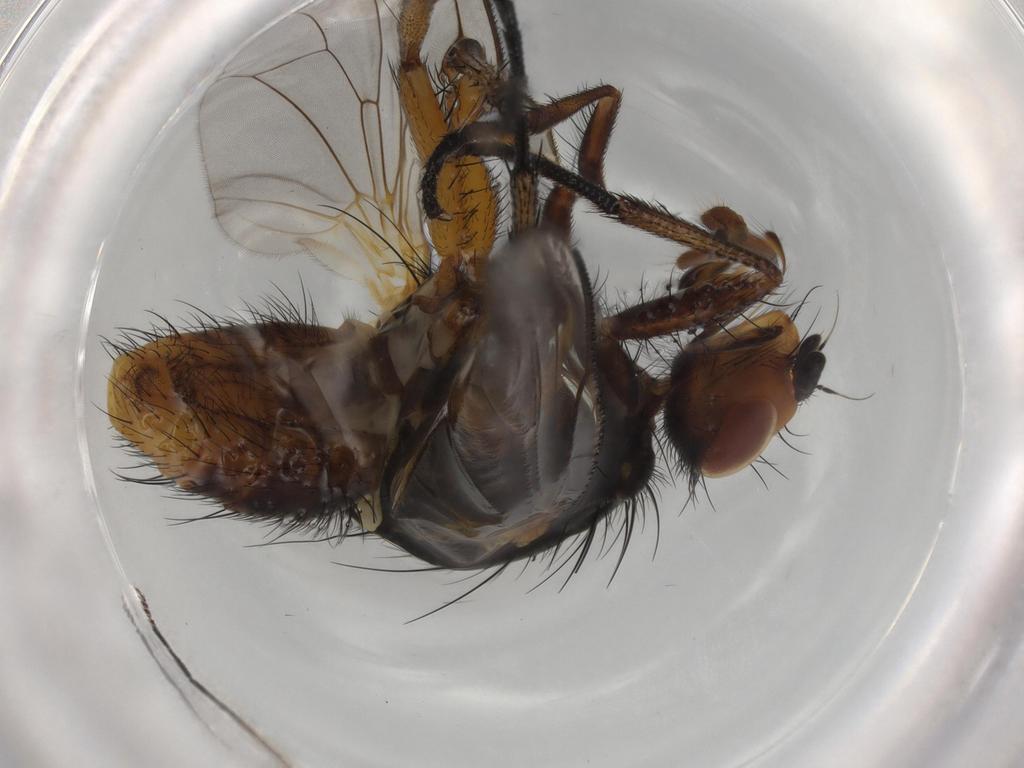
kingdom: Animalia
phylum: Arthropoda
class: Insecta
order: Diptera
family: Anthomyiidae
